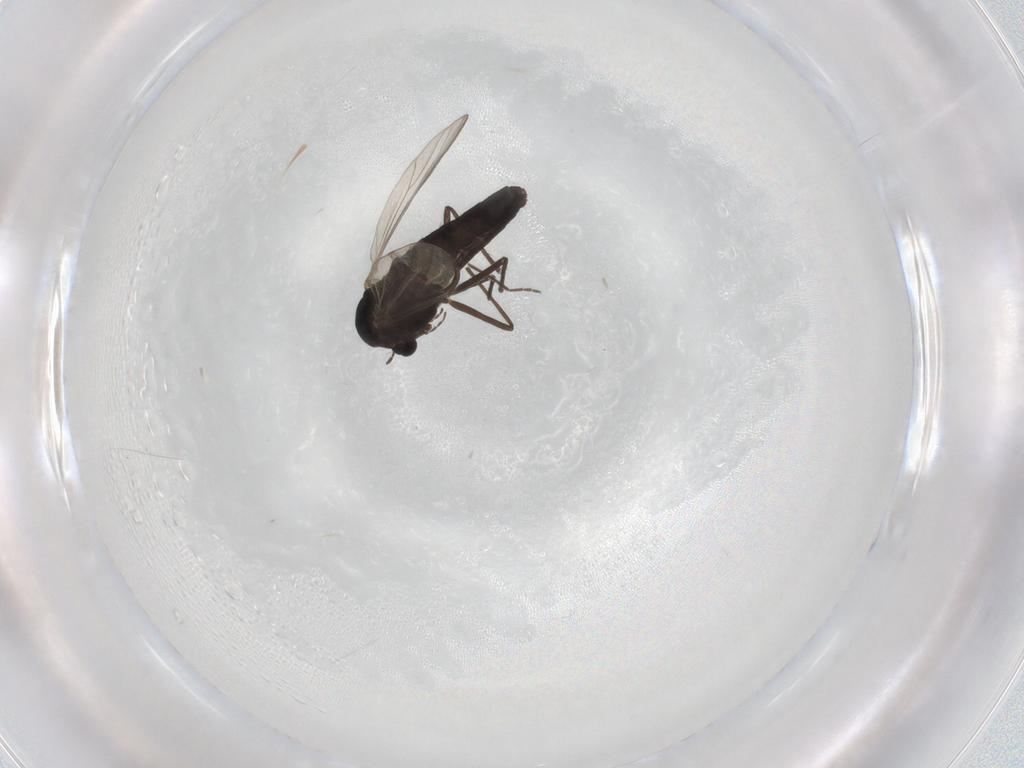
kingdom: Animalia
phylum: Arthropoda
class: Insecta
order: Diptera
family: Chironomidae
